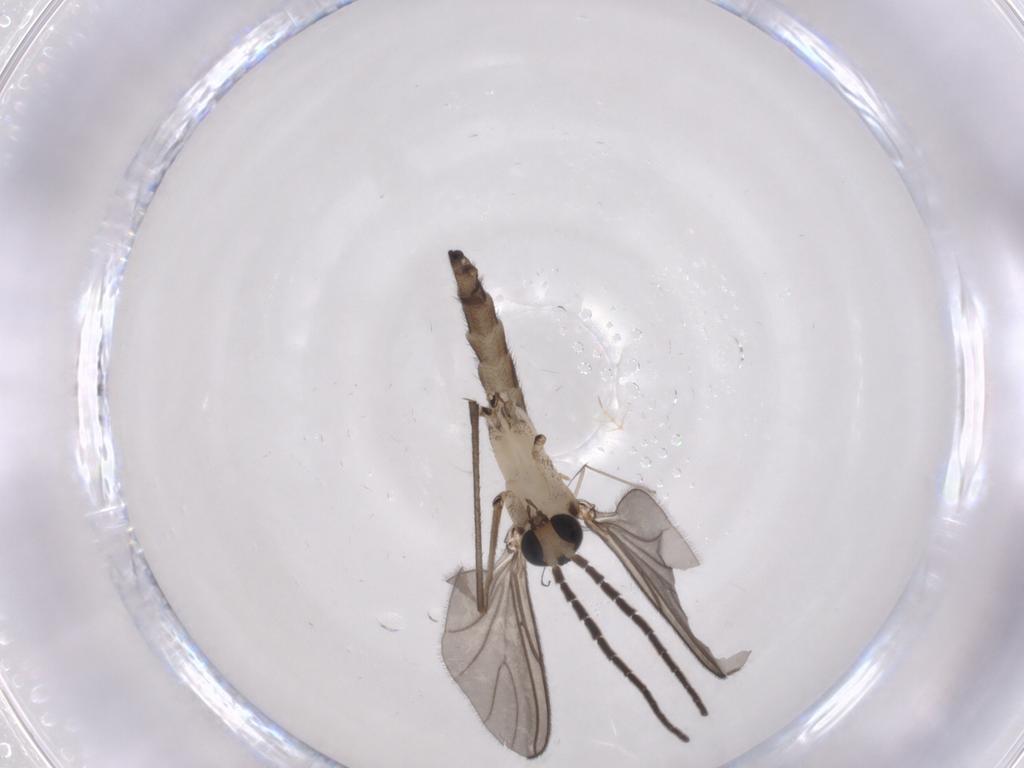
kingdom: Animalia
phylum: Arthropoda
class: Insecta
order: Diptera
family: Sciaridae
